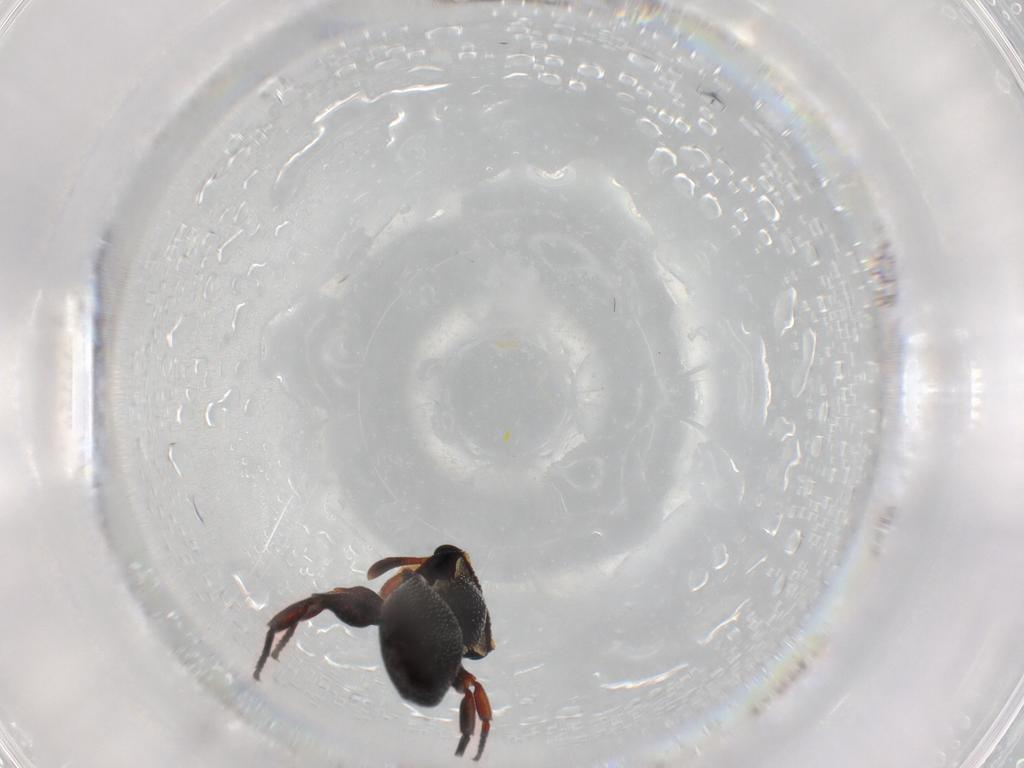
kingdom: Animalia
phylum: Arthropoda
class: Insecta
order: Hymenoptera
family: Formicidae
